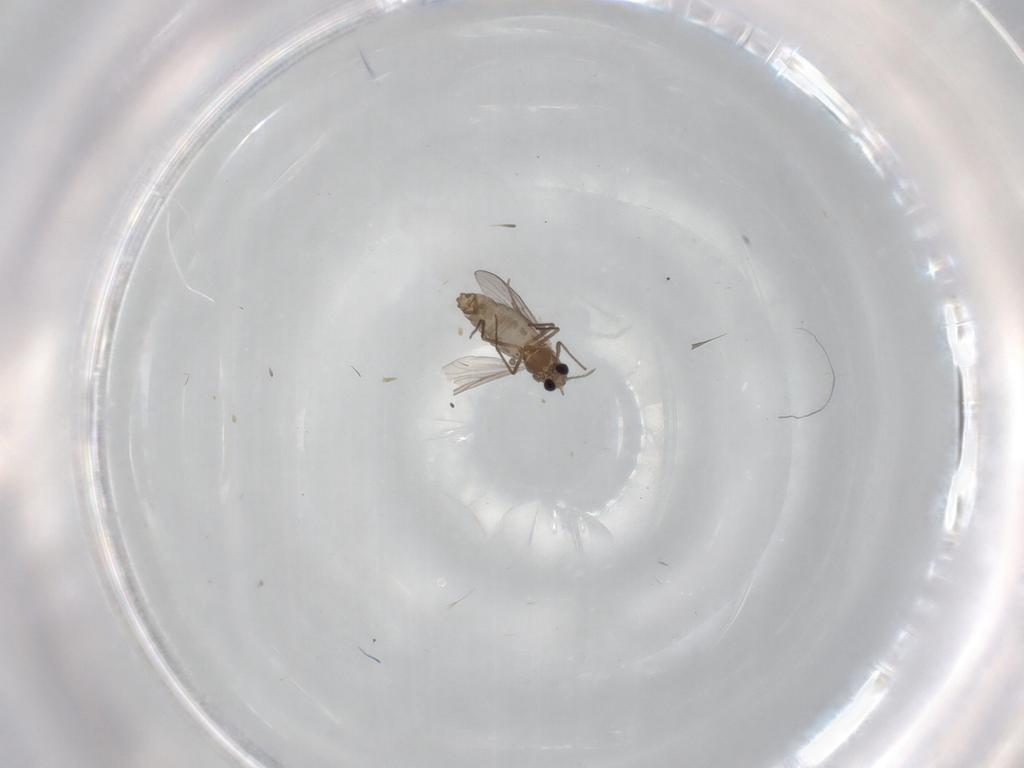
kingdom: Animalia
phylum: Arthropoda
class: Insecta
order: Diptera
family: Chironomidae
